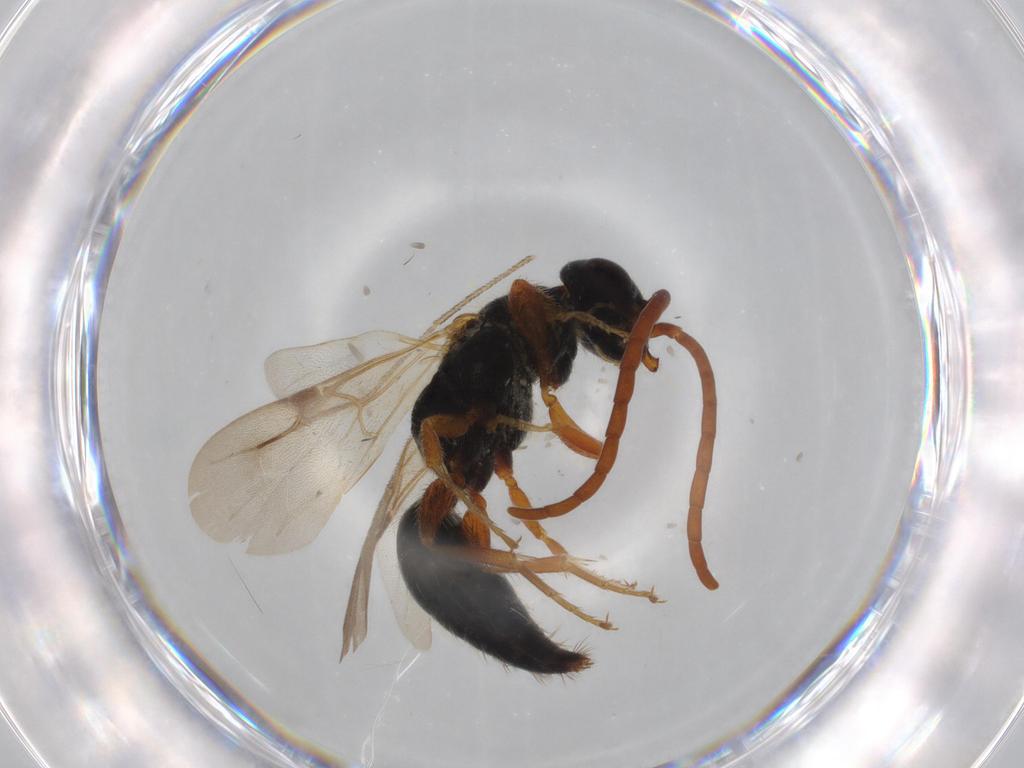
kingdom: Animalia
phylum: Arthropoda
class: Insecta
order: Hymenoptera
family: Bethylidae
